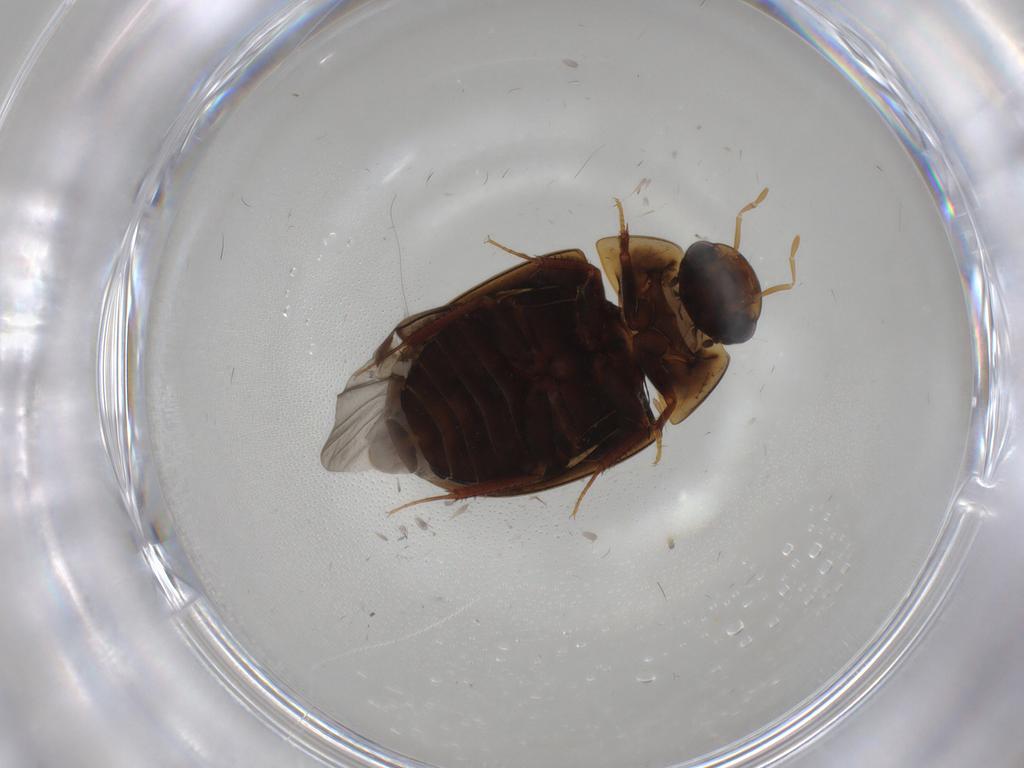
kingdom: Animalia
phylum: Arthropoda
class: Insecta
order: Coleoptera
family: Coccinellidae
